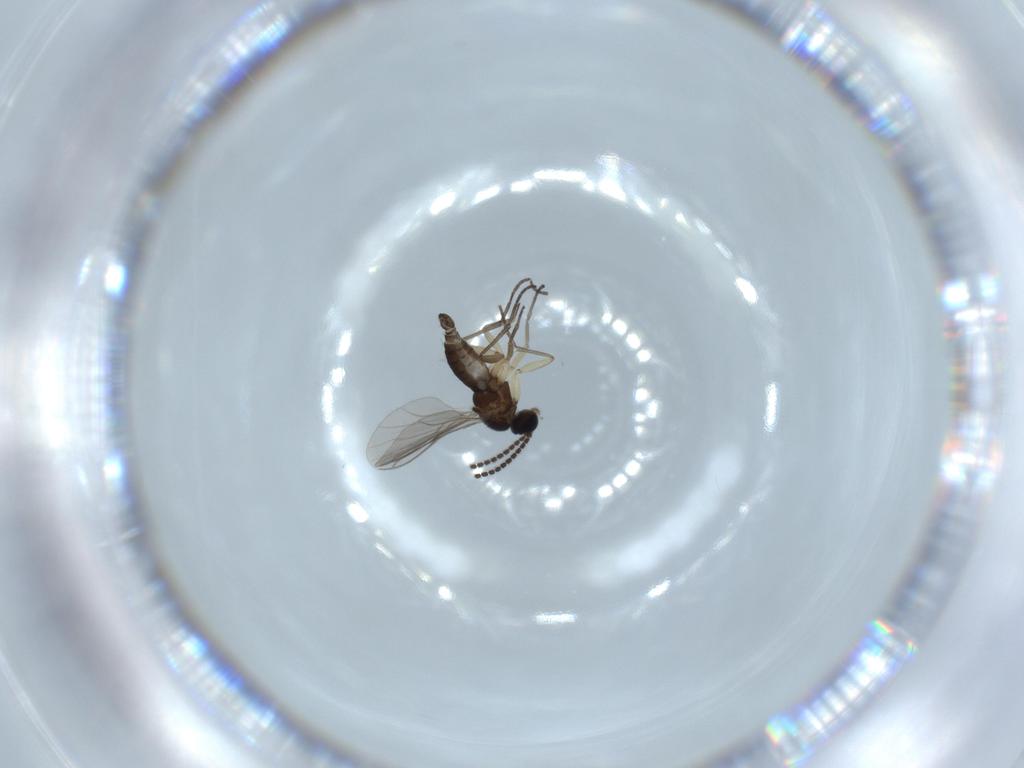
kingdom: Animalia
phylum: Arthropoda
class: Insecta
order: Diptera
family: Sciaridae
